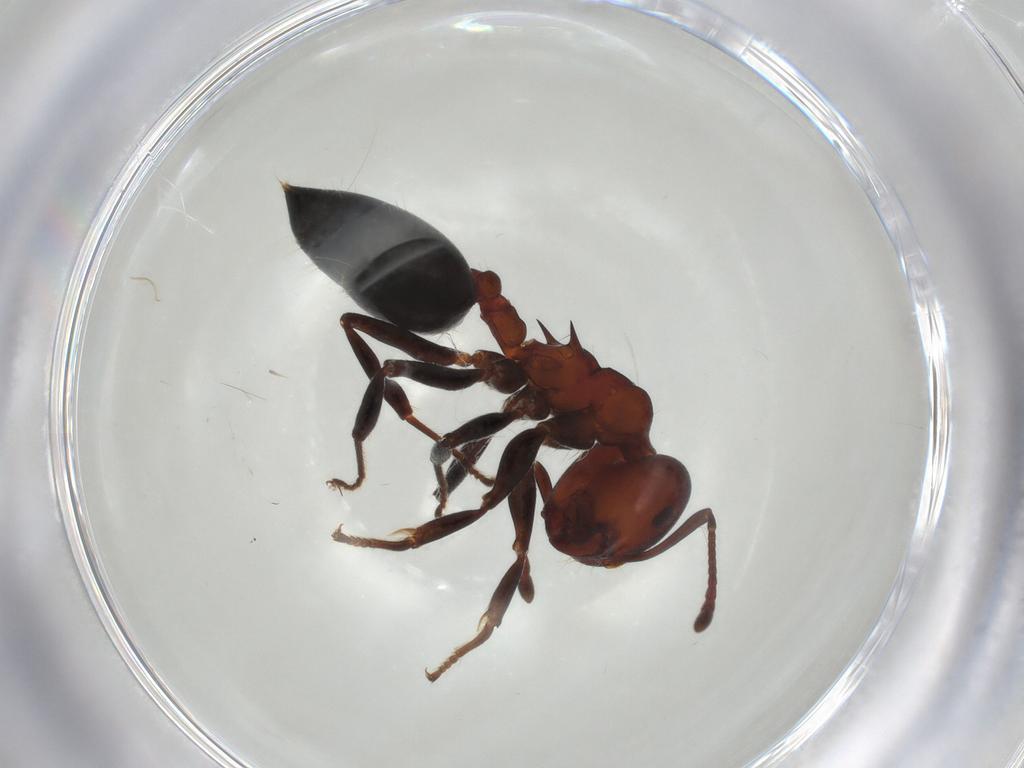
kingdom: Animalia
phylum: Arthropoda
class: Insecta
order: Hymenoptera
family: Formicidae
